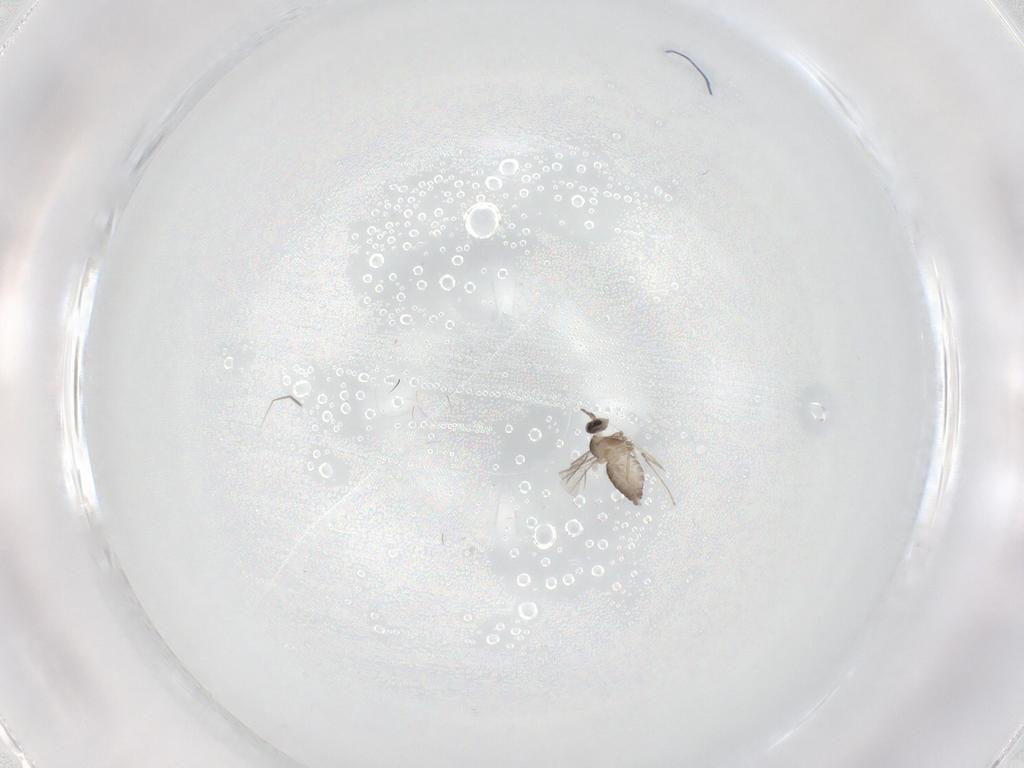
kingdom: Animalia
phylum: Arthropoda
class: Insecta
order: Diptera
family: Cecidomyiidae
